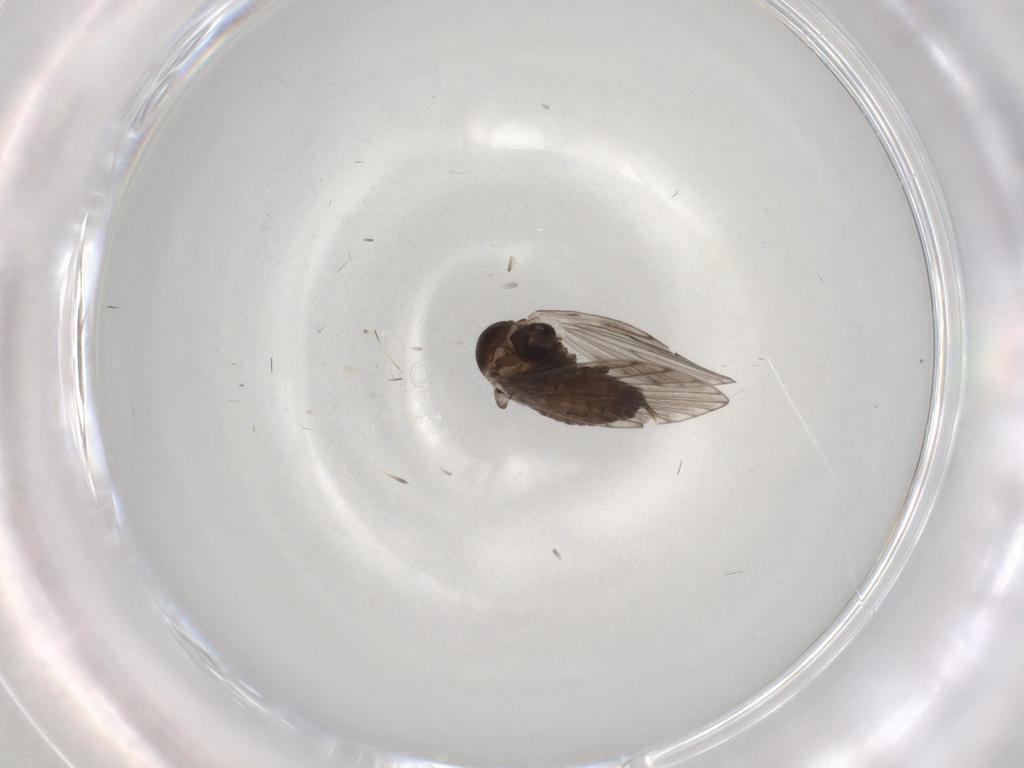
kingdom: Animalia
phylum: Arthropoda
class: Insecta
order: Diptera
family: Psychodidae
